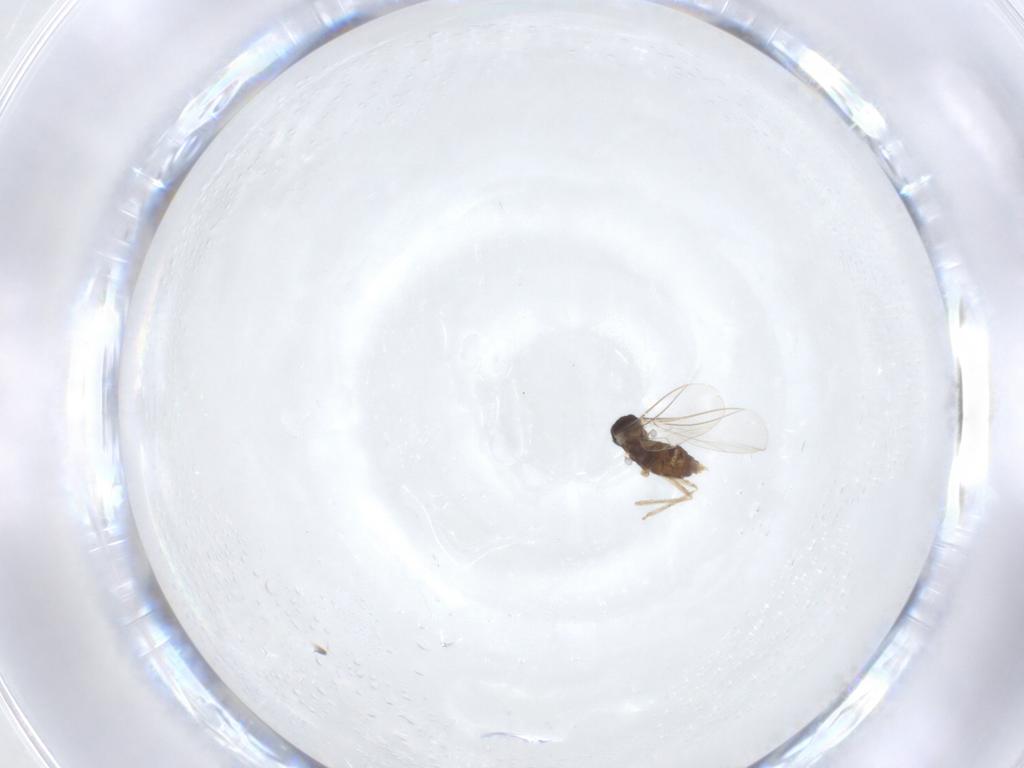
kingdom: Animalia
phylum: Arthropoda
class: Insecta
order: Diptera
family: Cecidomyiidae
